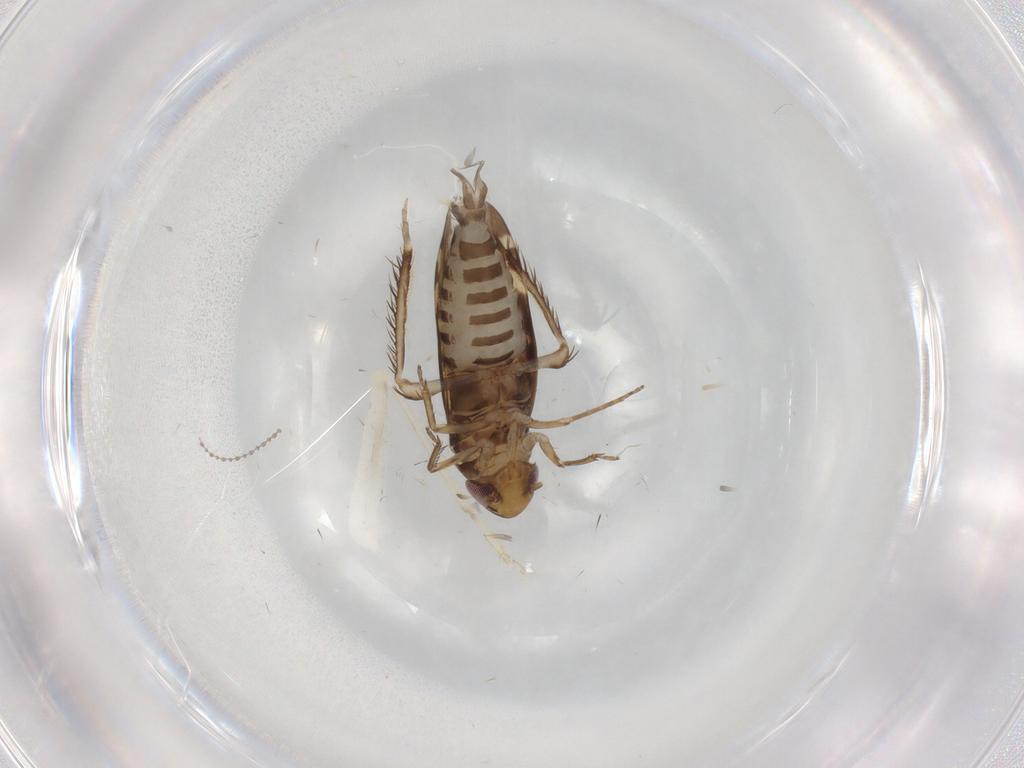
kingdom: Animalia
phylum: Arthropoda
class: Insecta
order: Hemiptera
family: Cicadellidae
